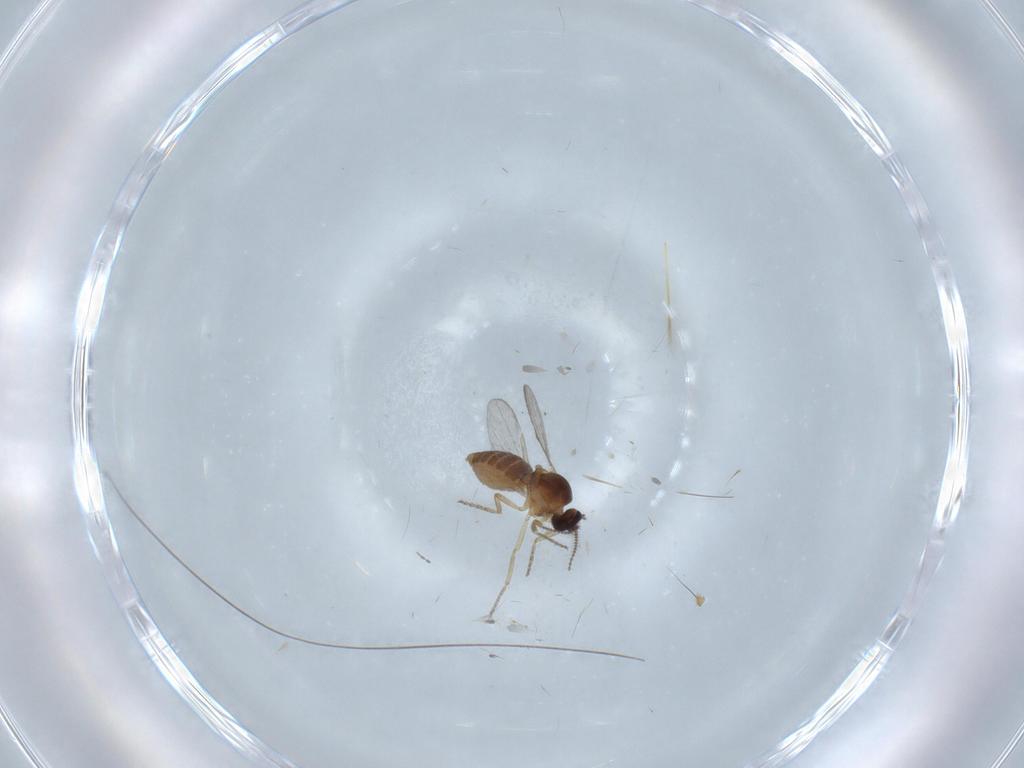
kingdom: Animalia
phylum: Arthropoda
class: Insecta
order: Diptera
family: Dolichopodidae
